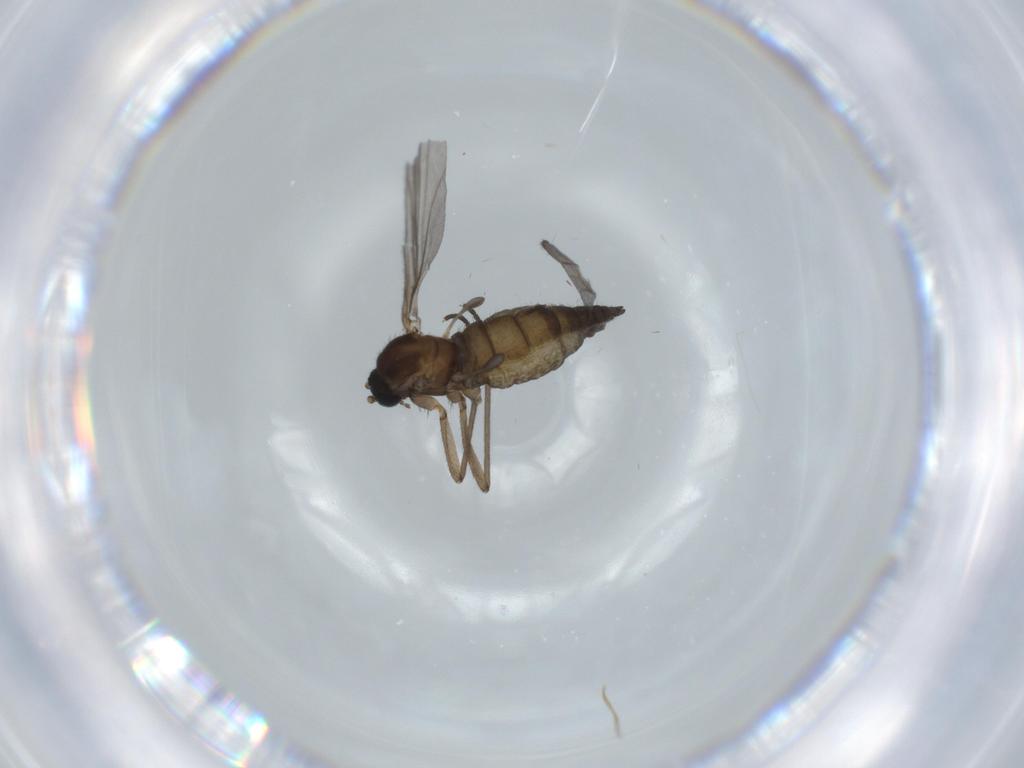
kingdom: Animalia
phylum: Arthropoda
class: Insecta
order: Diptera
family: Sciaridae
